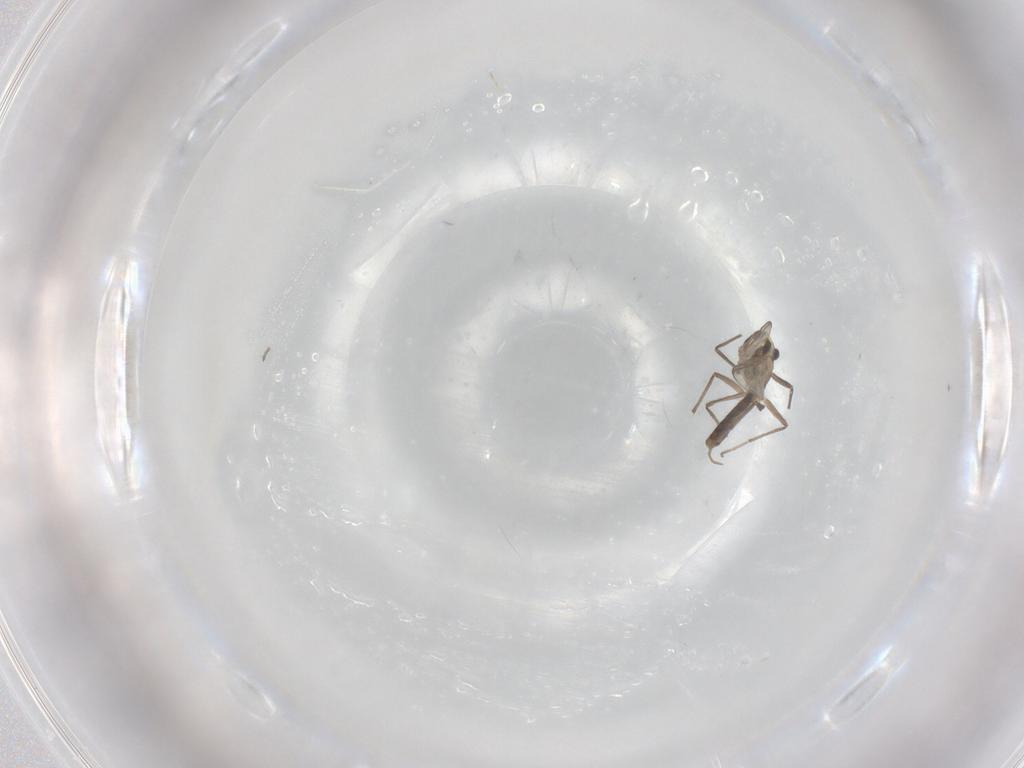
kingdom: Animalia
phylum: Arthropoda
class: Insecta
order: Diptera
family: Chironomidae
